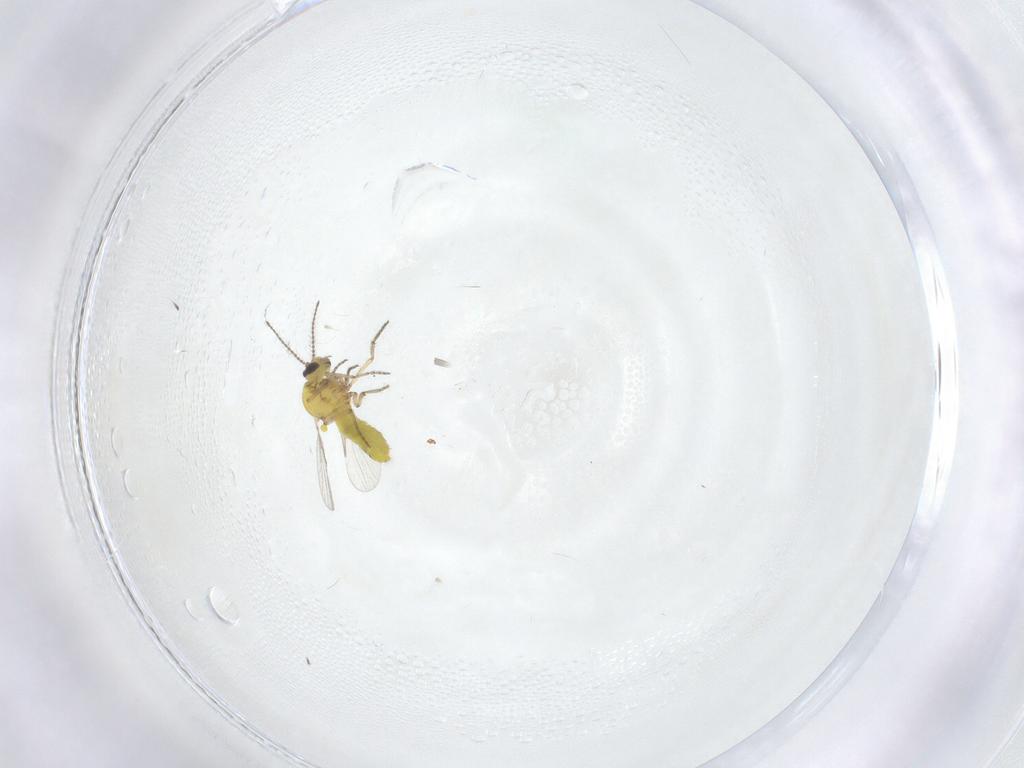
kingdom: Animalia
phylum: Arthropoda
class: Insecta
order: Diptera
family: Ceratopogonidae
